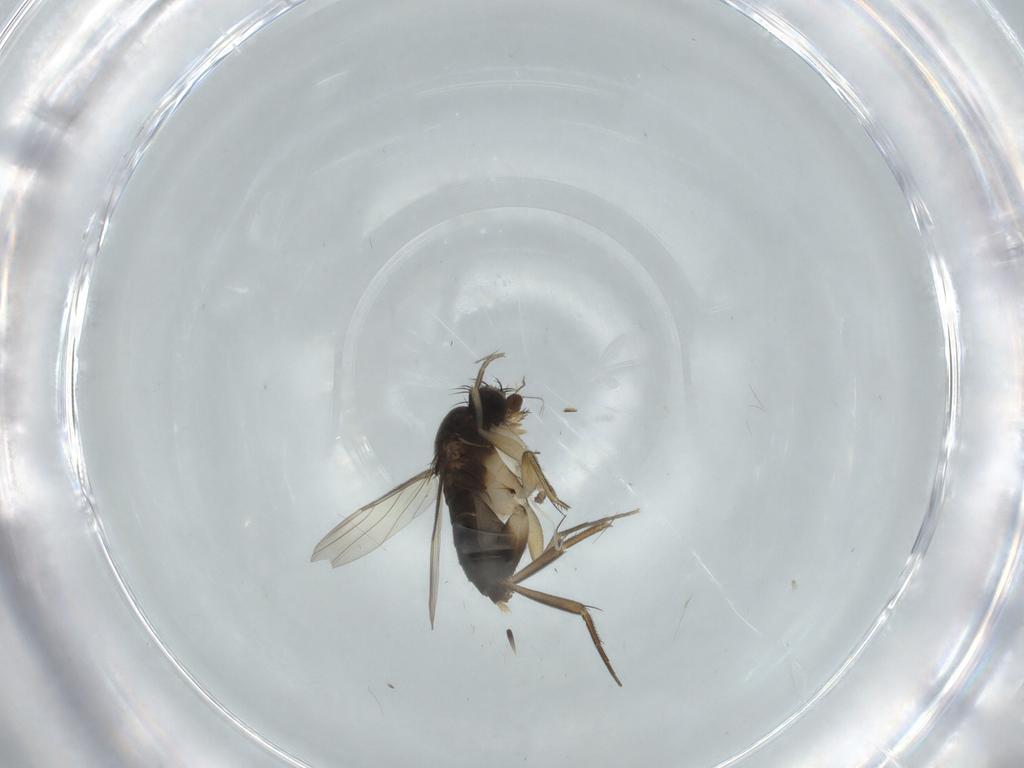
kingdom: Animalia
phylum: Arthropoda
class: Insecta
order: Diptera
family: Phoridae
